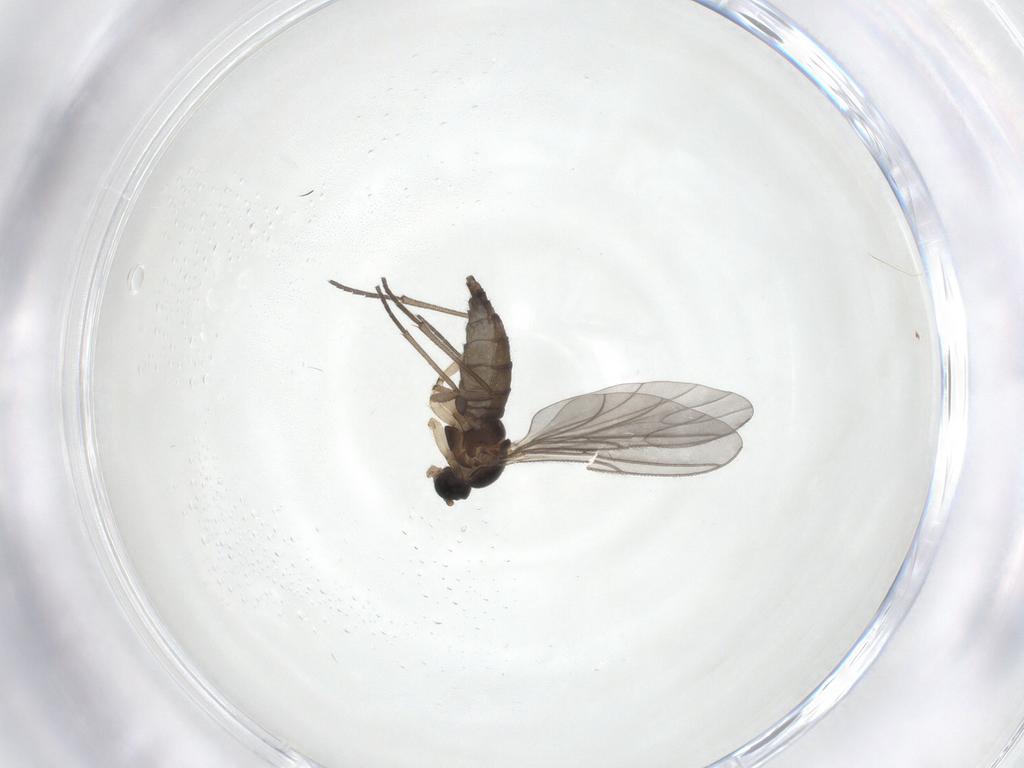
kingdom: Animalia
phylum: Arthropoda
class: Insecta
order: Diptera
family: Sciaridae
